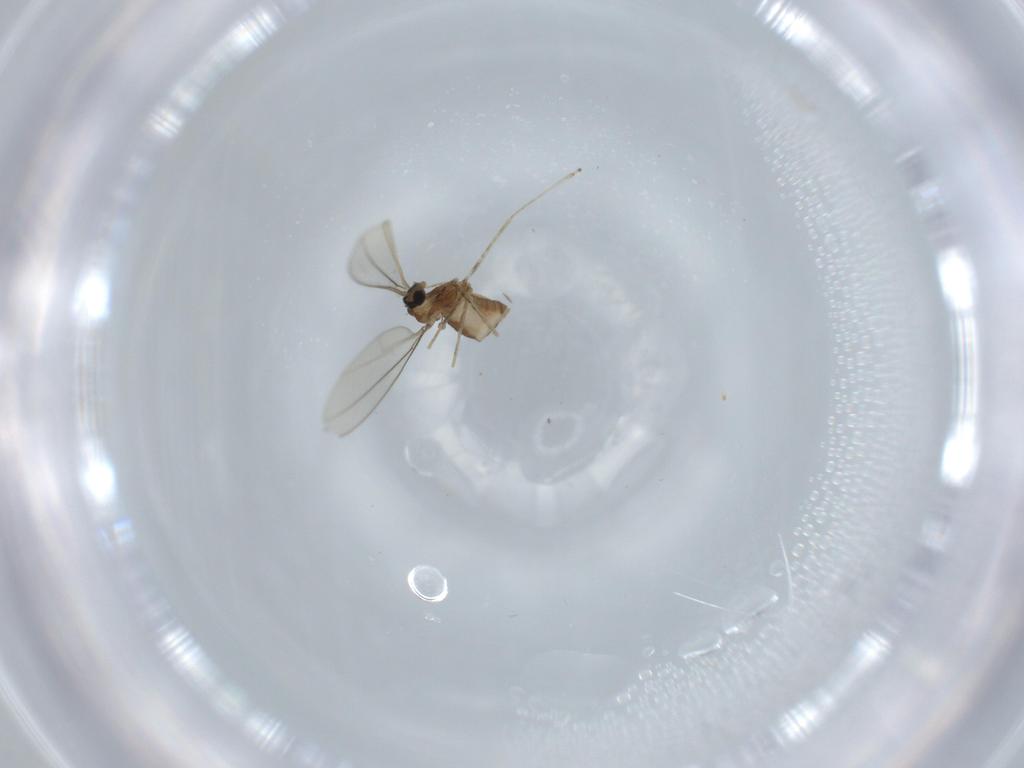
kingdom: Animalia
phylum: Arthropoda
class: Insecta
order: Diptera
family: Cecidomyiidae
